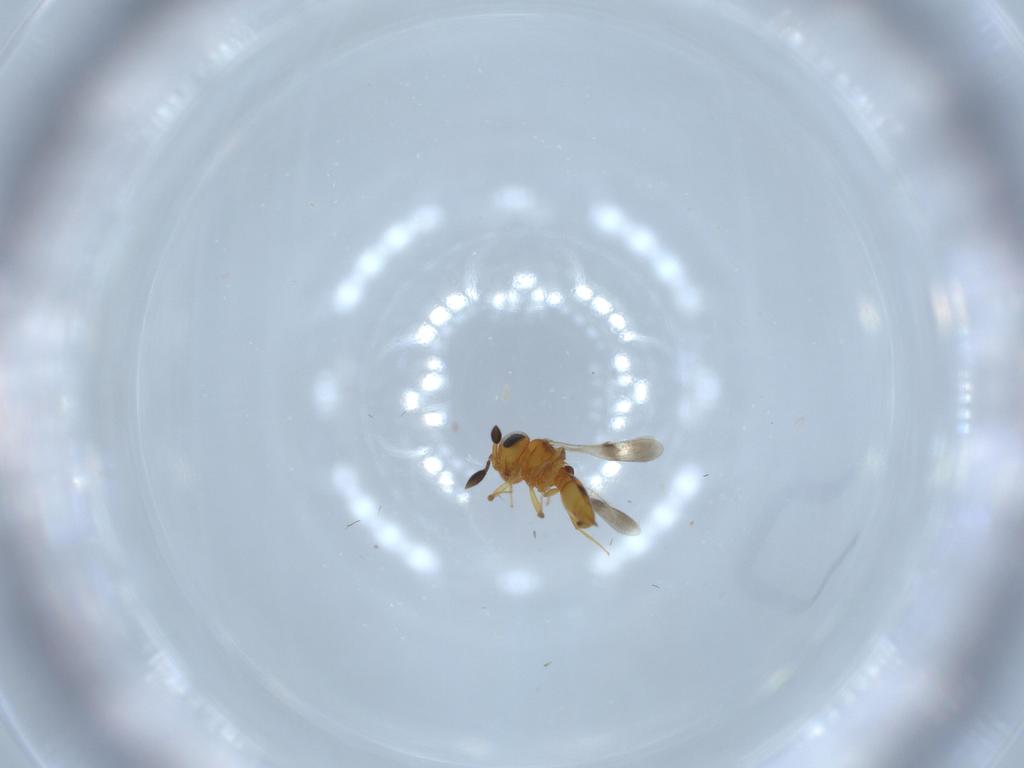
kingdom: Animalia
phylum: Arthropoda
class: Insecta
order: Hymenoptera
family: Scelionidae
